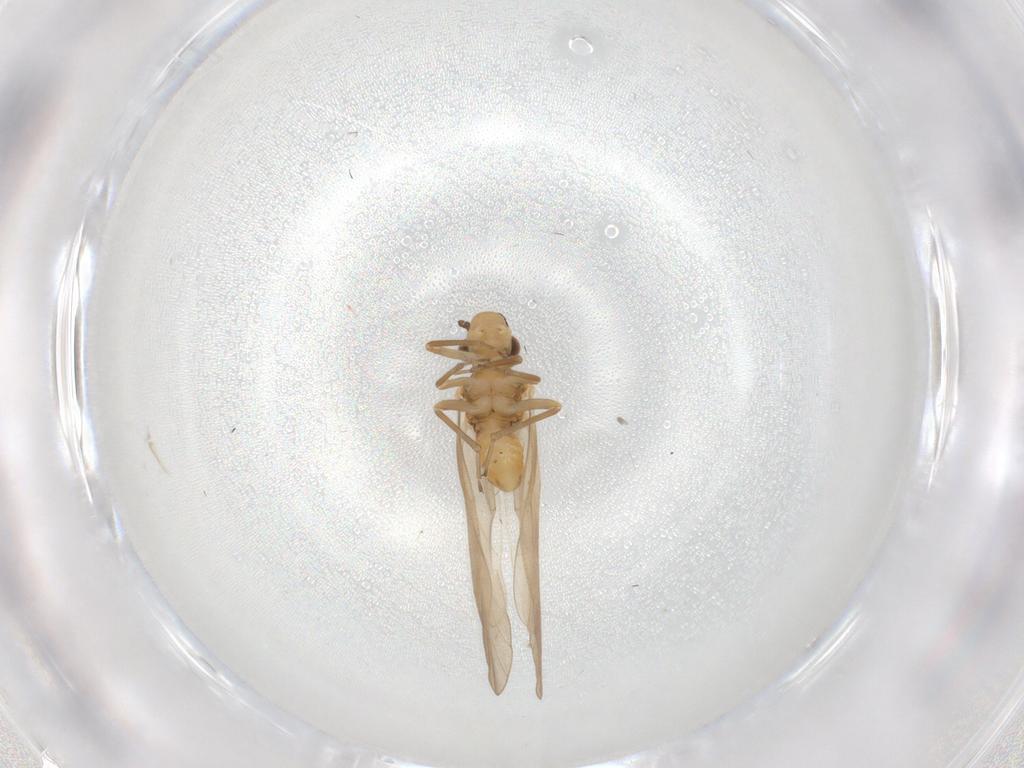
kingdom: Animalia
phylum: Arthropoda
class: Insecta
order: Psocodea
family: Caeciliusidae
